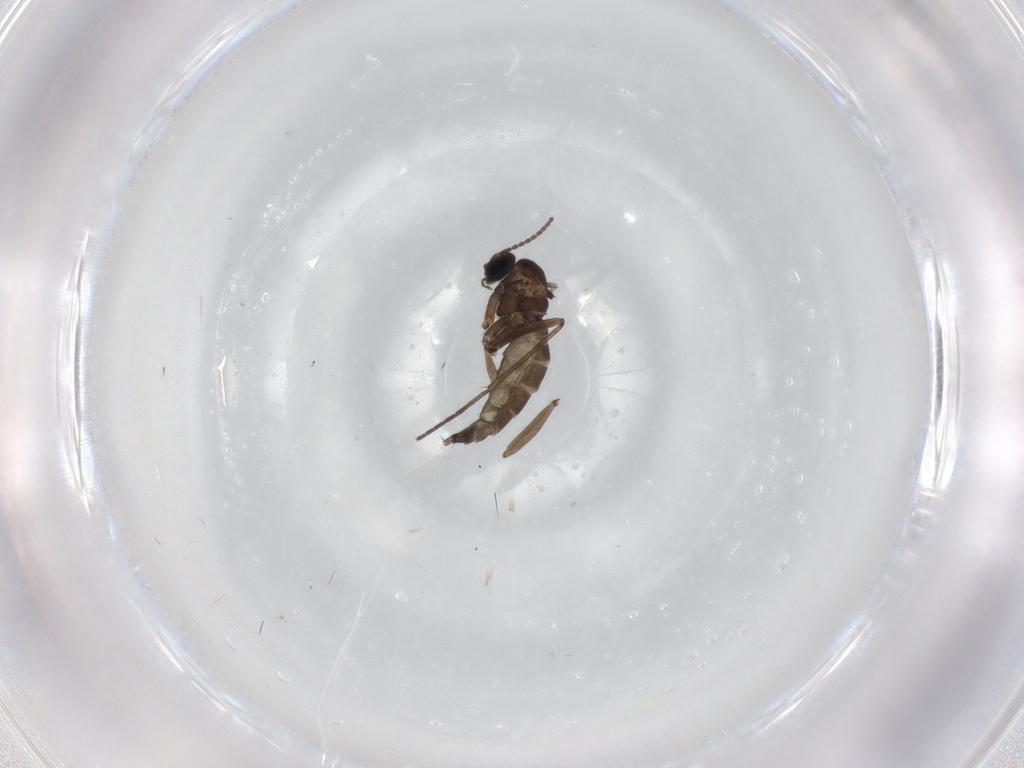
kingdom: Animalia
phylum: Arthropoda
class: Insecta
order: Diptera
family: Sciaridae
